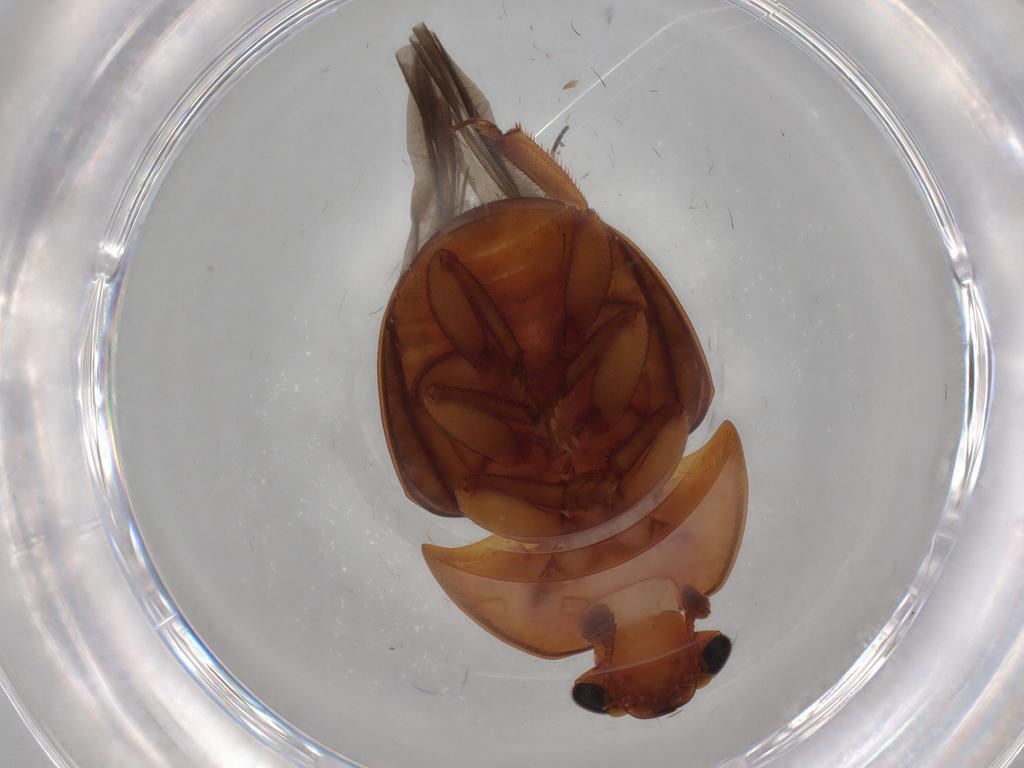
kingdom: Animalia
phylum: Arthropoda
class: Insecta
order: Coleoptera
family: Nitidulidae
